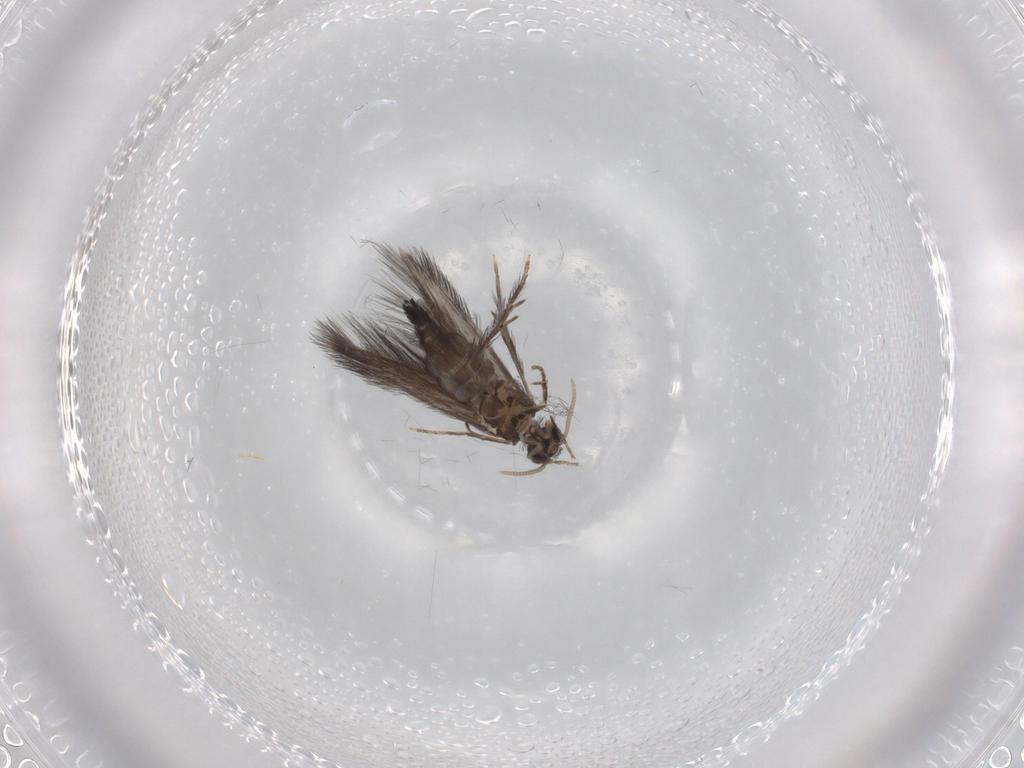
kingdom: Animalia
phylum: Arthropoda
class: Insecta
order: Trichoptera
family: Hydroptilidae
